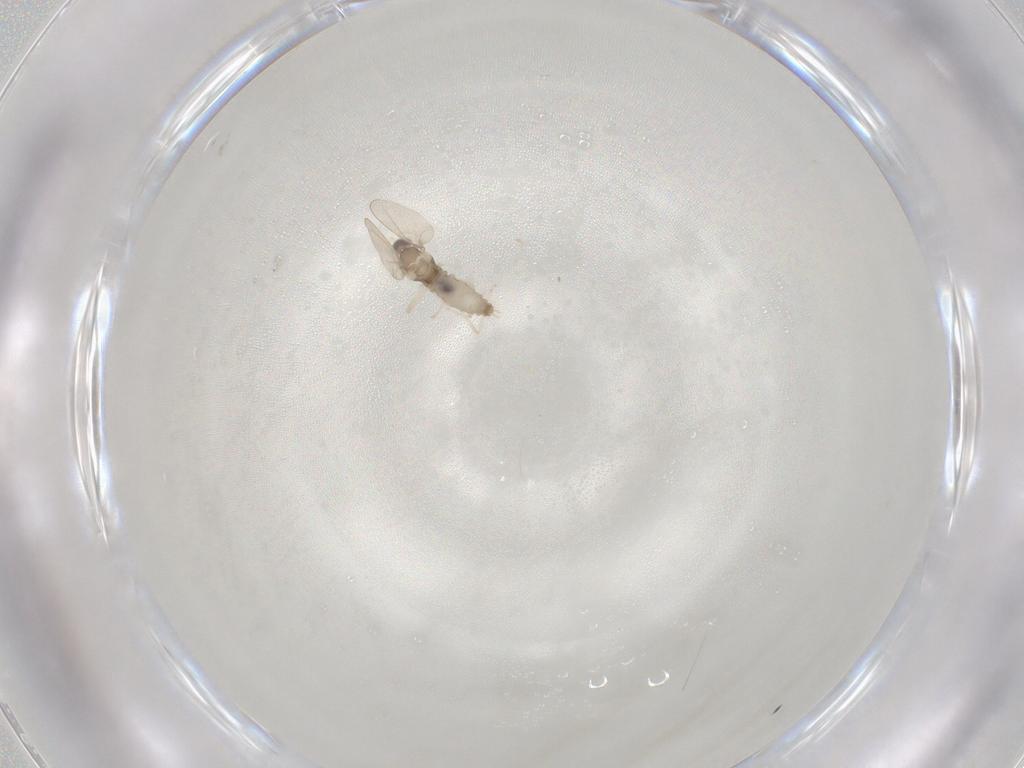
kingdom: Animalia
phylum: Arthropoda
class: Insecta
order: Diptera
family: Cecidomyiidae
